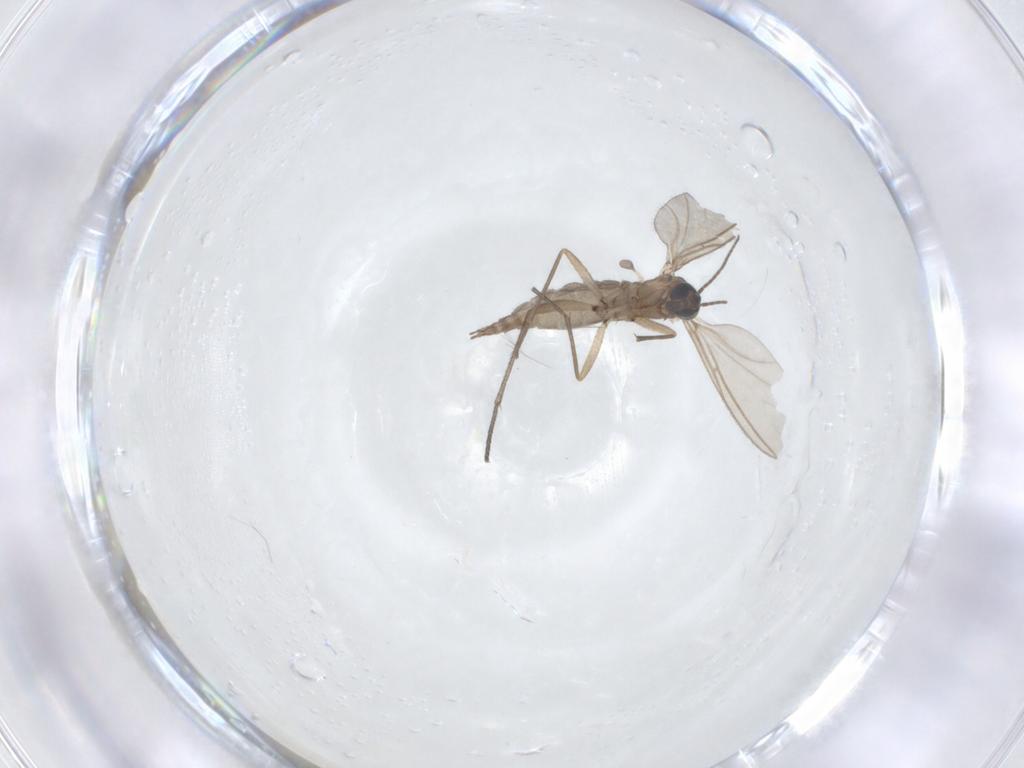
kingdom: Animalia
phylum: Arthropoda
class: Insecta
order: Diptera
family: Sciaridae
